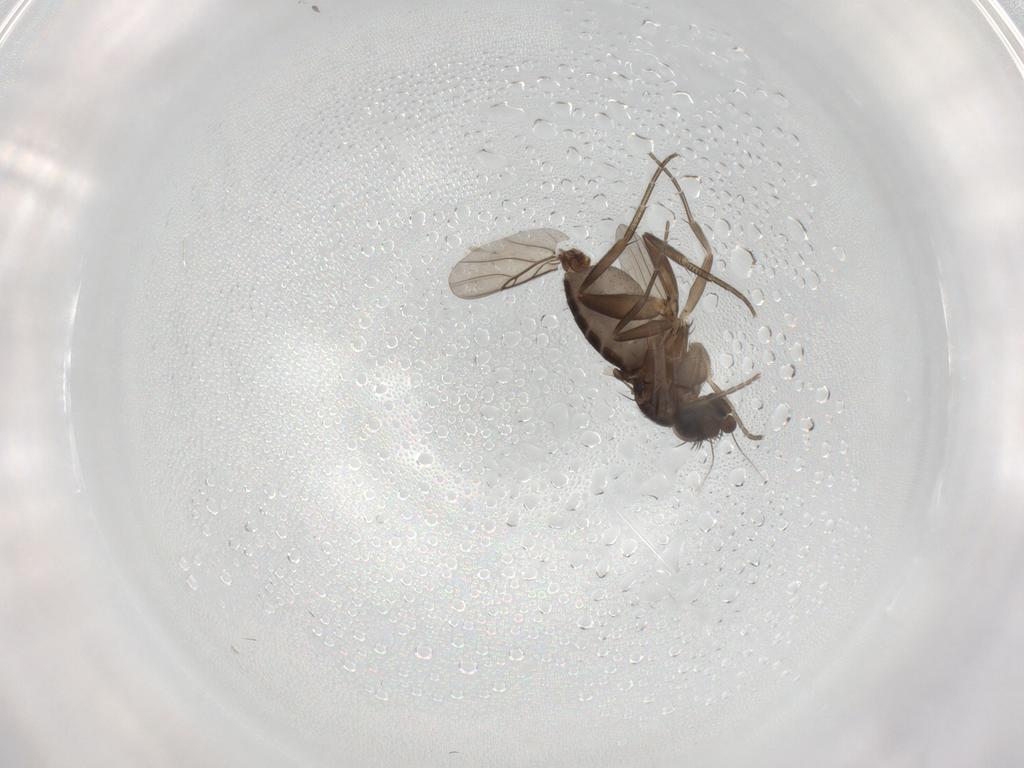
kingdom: Animalia
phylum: Arthropoda
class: Insecta
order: Diptera
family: Phoridae
